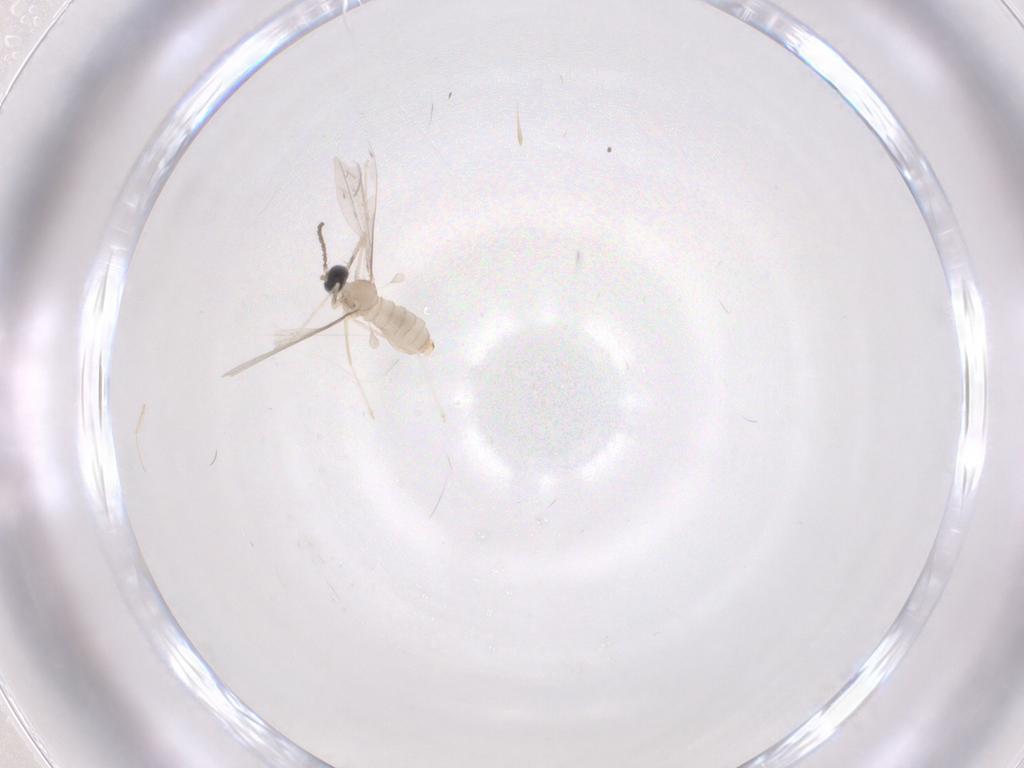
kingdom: Animalia
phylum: Arthropoda
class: Insecta
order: Diptera
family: Cecidomyiidae
